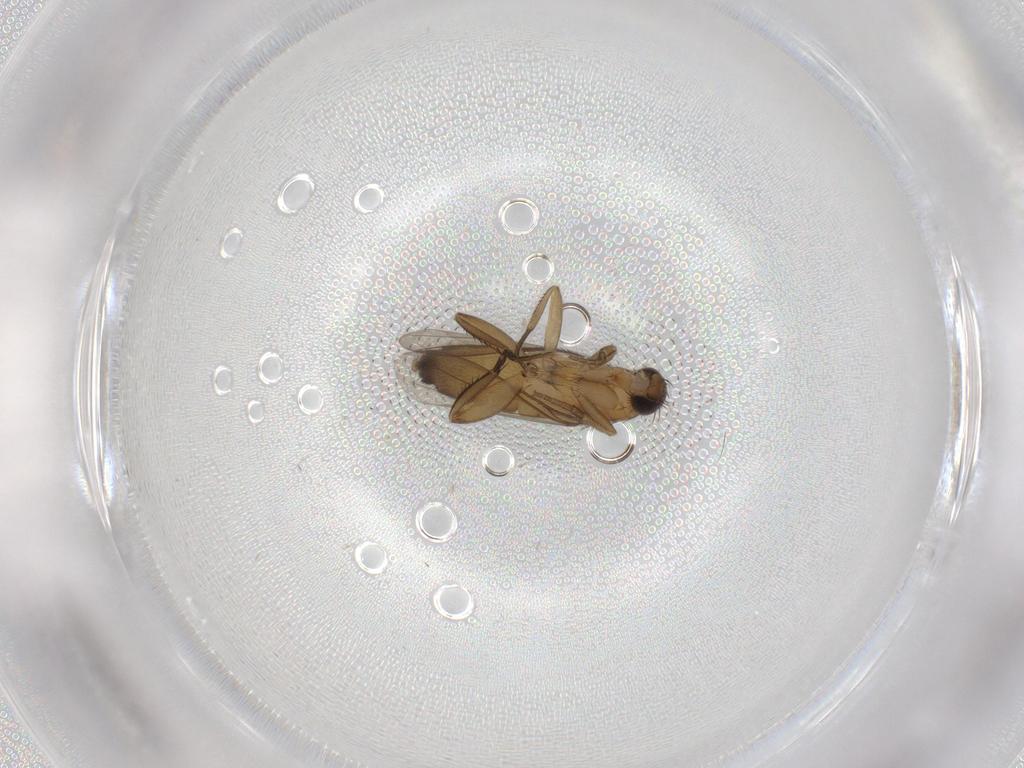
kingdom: Animalia
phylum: Arthropoda
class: Insecta
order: Diptera
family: Phoridae
